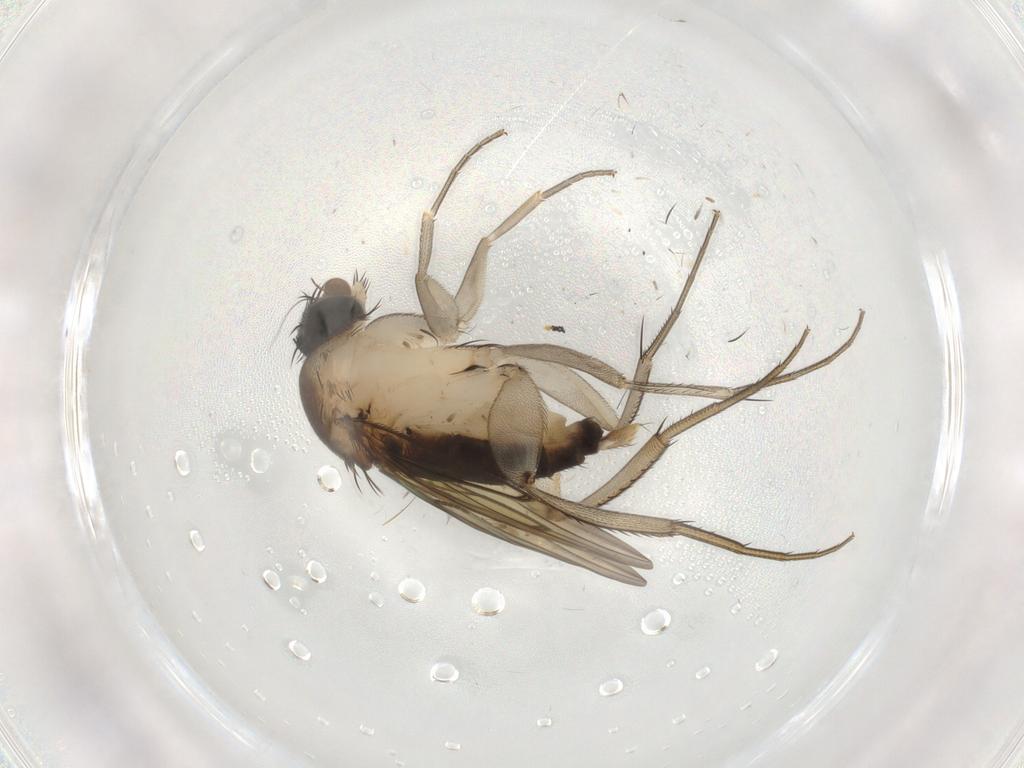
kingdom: Animalia
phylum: Arthropoda
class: Insecta
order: Diptera
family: Phoridae
